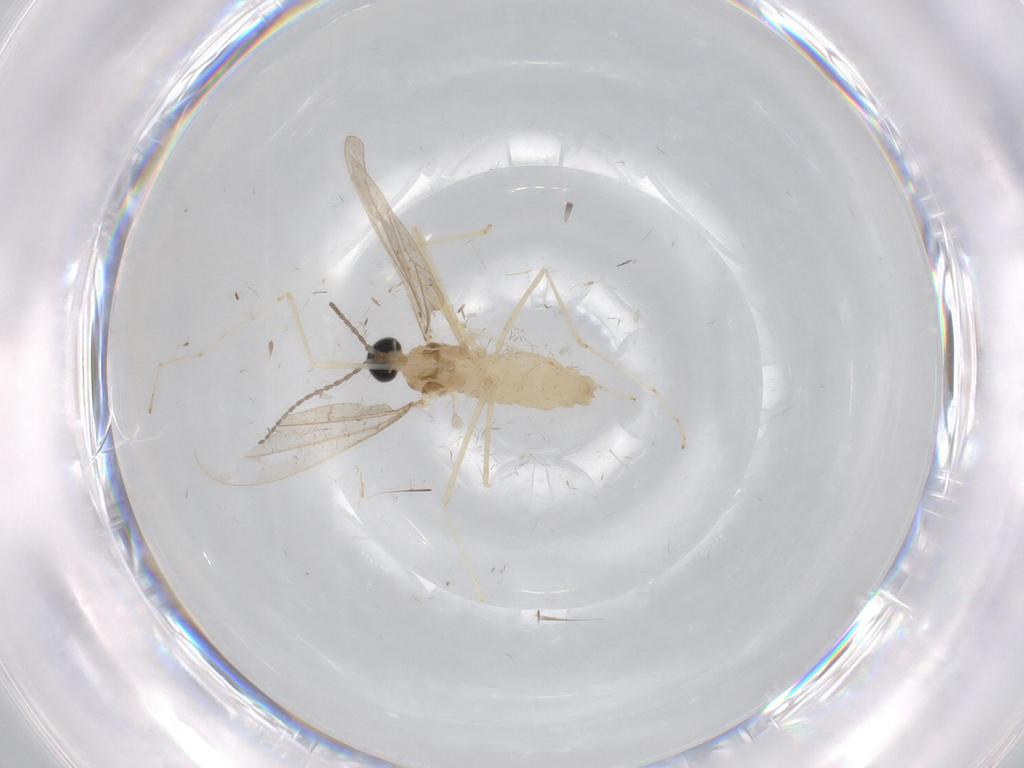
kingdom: Animalia
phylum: Arthropoda
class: Insecta
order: Diptera
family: Cecidomyiidae
